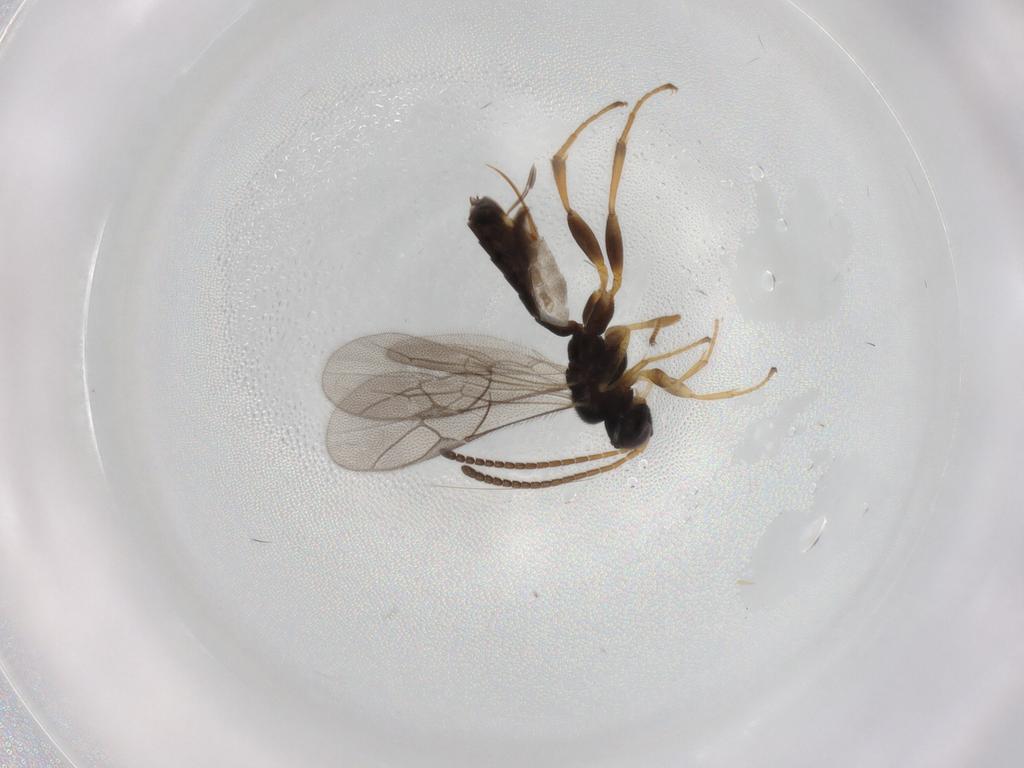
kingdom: Animalia
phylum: Arthropoda
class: Insecta
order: Hymenoptera
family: Ichneumonidae
